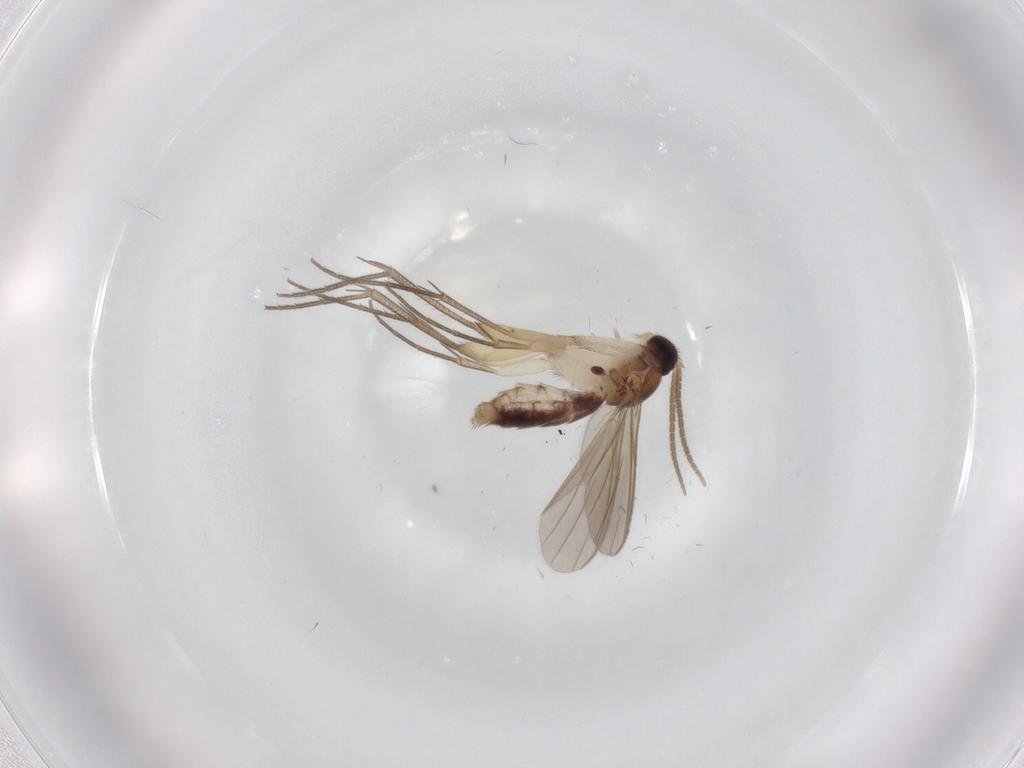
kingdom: Animalia
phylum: Arthropoda
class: Insecta
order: Diptera
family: Mycetophilidae
